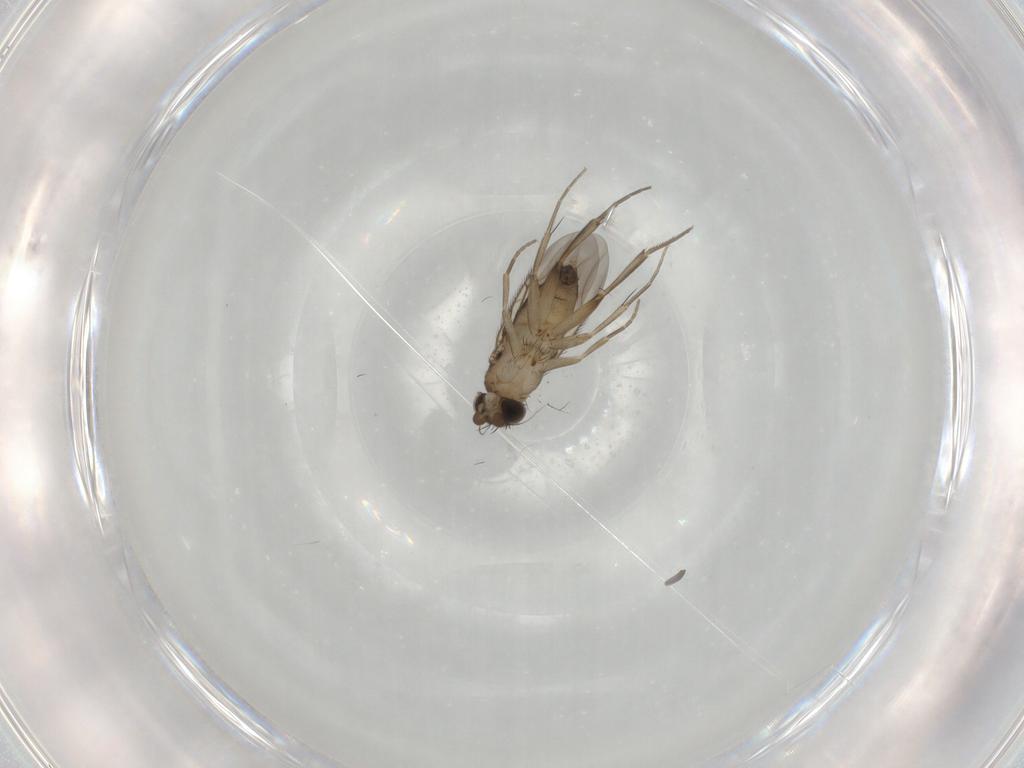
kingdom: Animalia
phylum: Arthropoda
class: Insecta
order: Diptera
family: Phoridae
